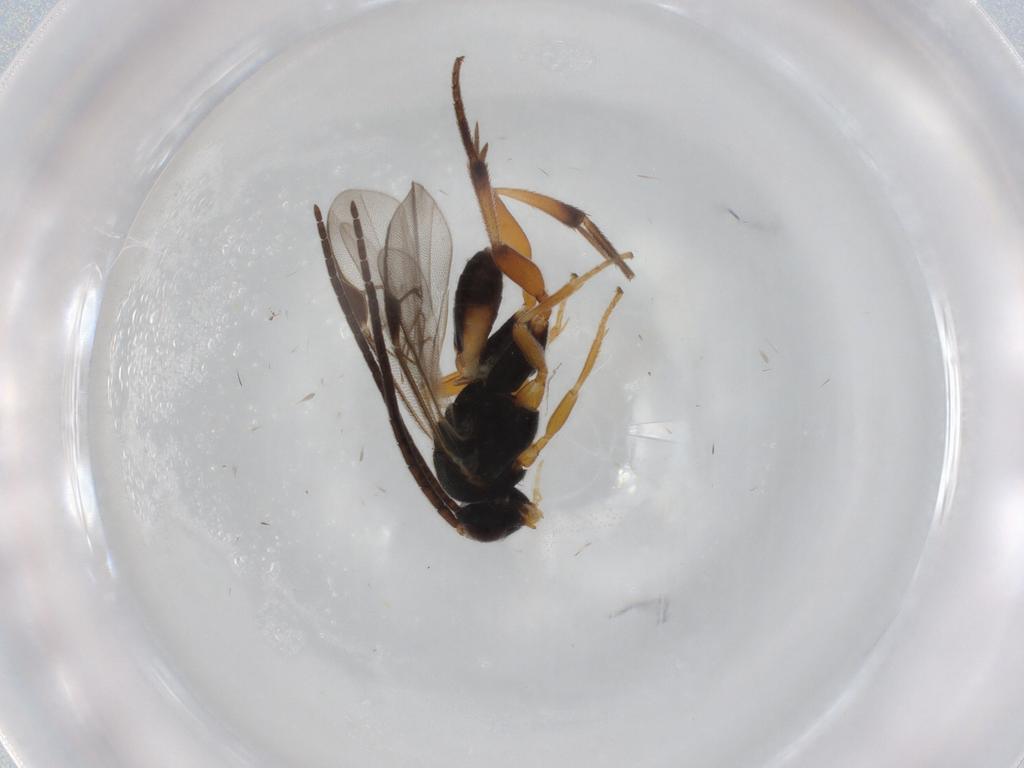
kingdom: Animalia
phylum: Arthropoda
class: Insecta
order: Hymenoptera
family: Braconidae
